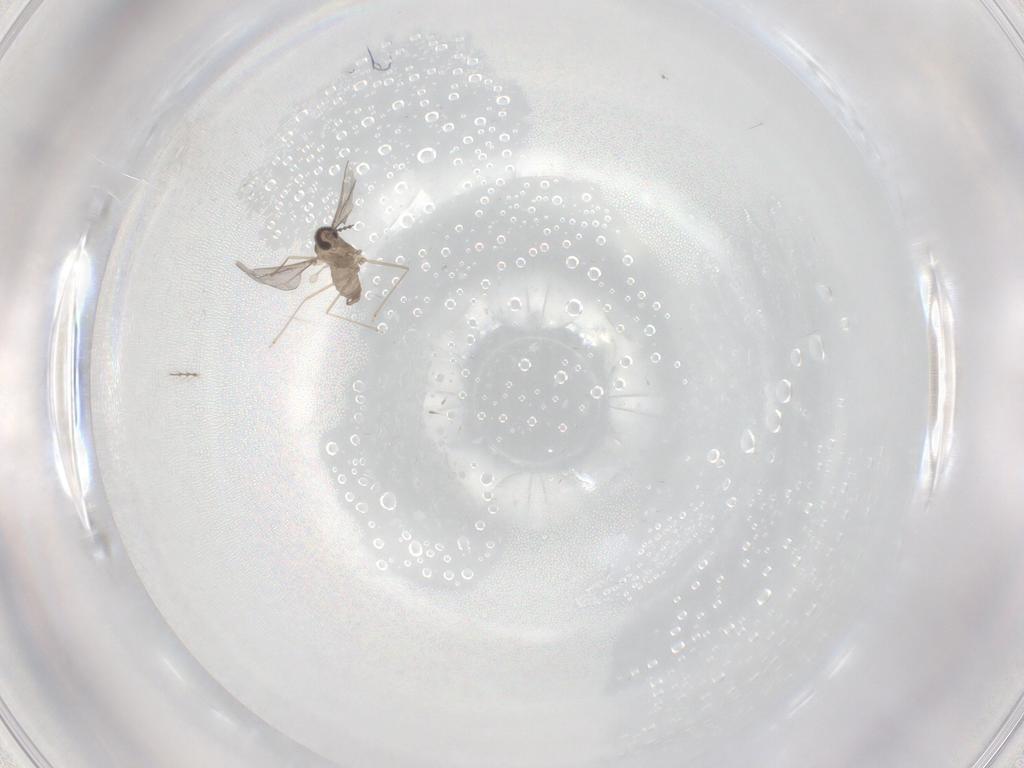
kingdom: Animalia
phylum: Arthropoda
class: Insecta
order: Diptera
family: Cecidomyiidae
